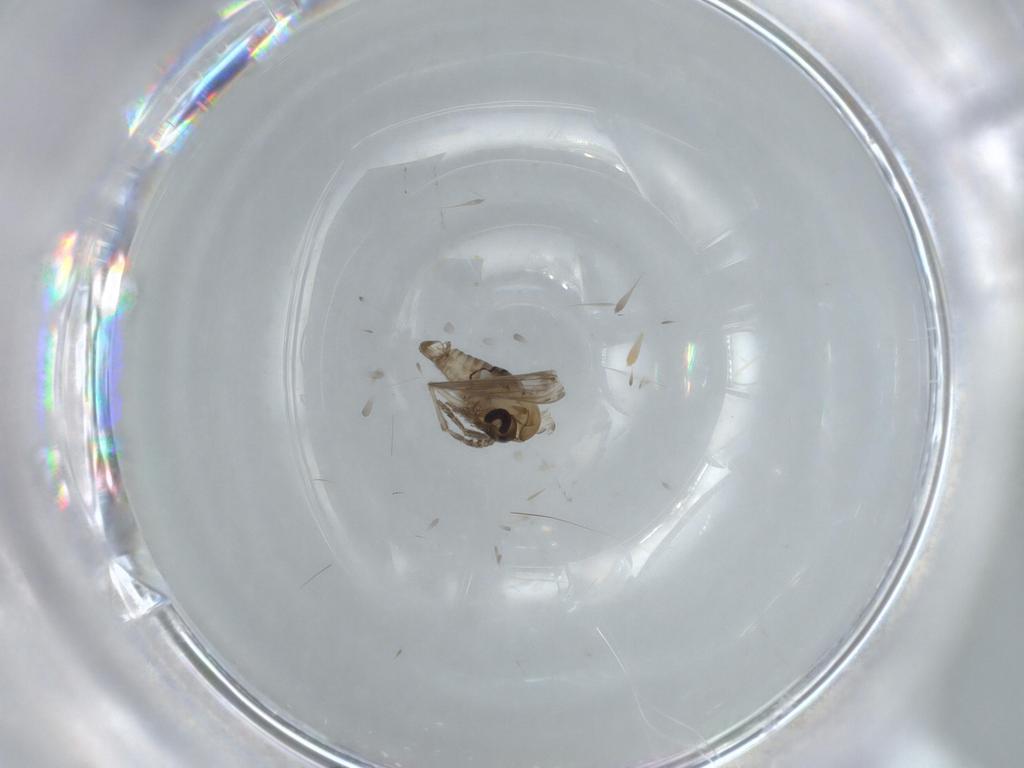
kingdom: Animalia
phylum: Arthropoda
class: Insecta
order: Diptera
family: Psychodidae
